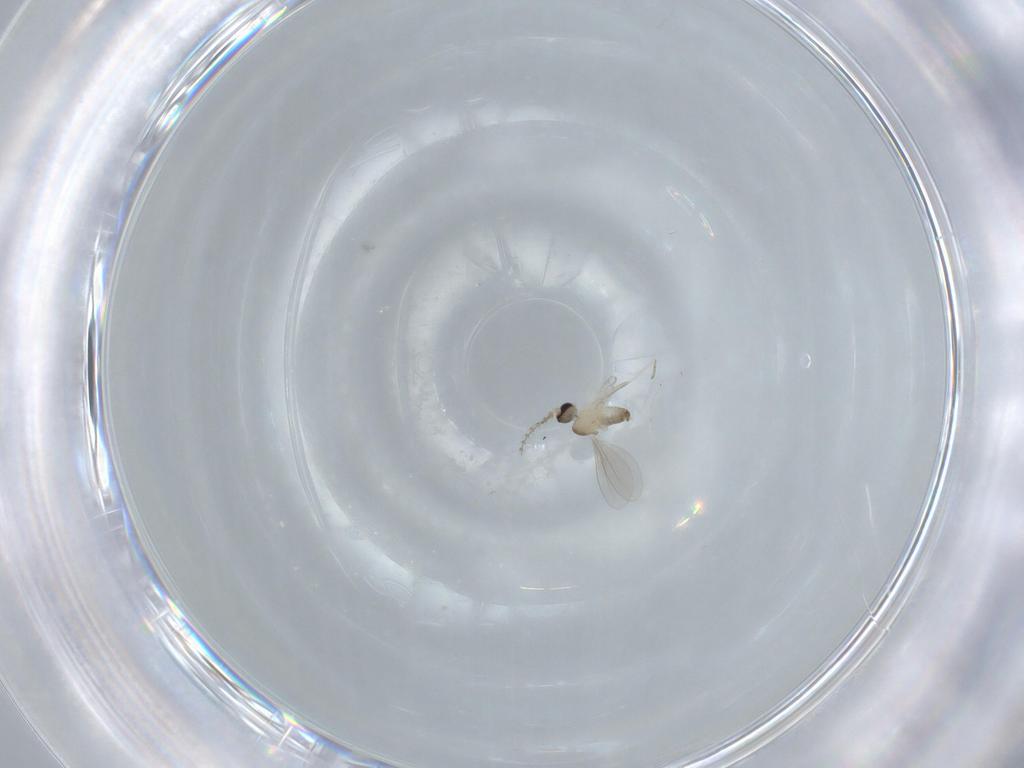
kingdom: Animalia
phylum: Arthropoda
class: Insecta
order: Diptera
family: Cecidomyiidae
